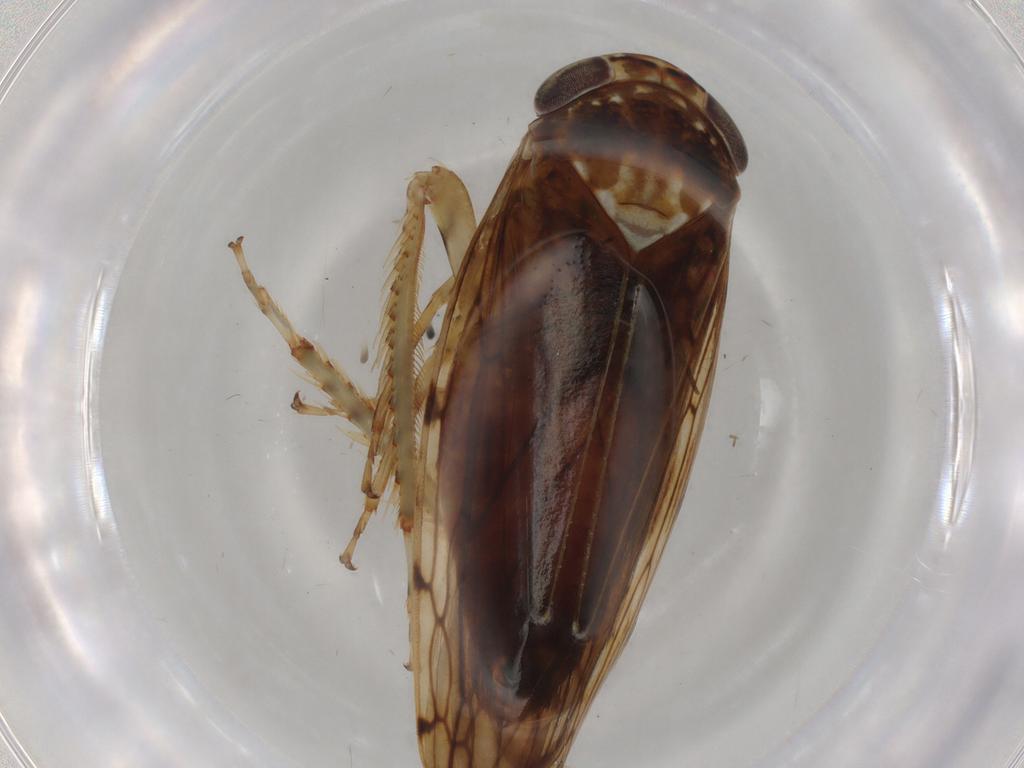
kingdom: Animalia
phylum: Arthropoda
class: Insecta
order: Hemiptera
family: Cicadellidae
